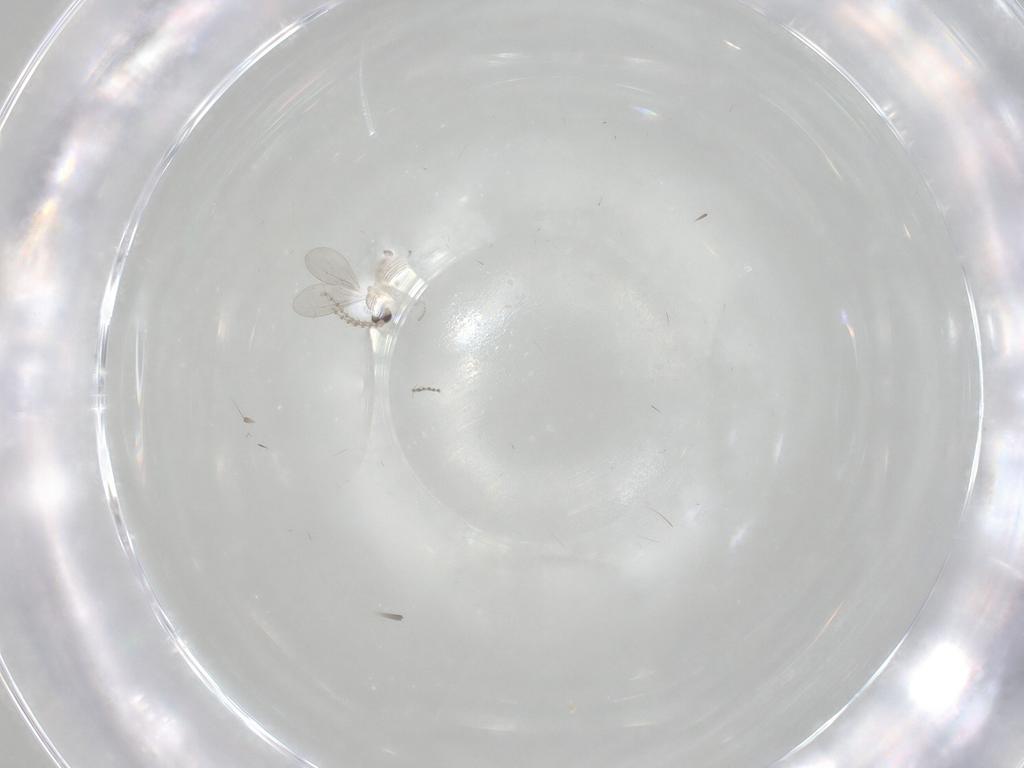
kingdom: Animalia
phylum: Arthropoda
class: Insecta
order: Diptera
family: Cecidomyiidae
